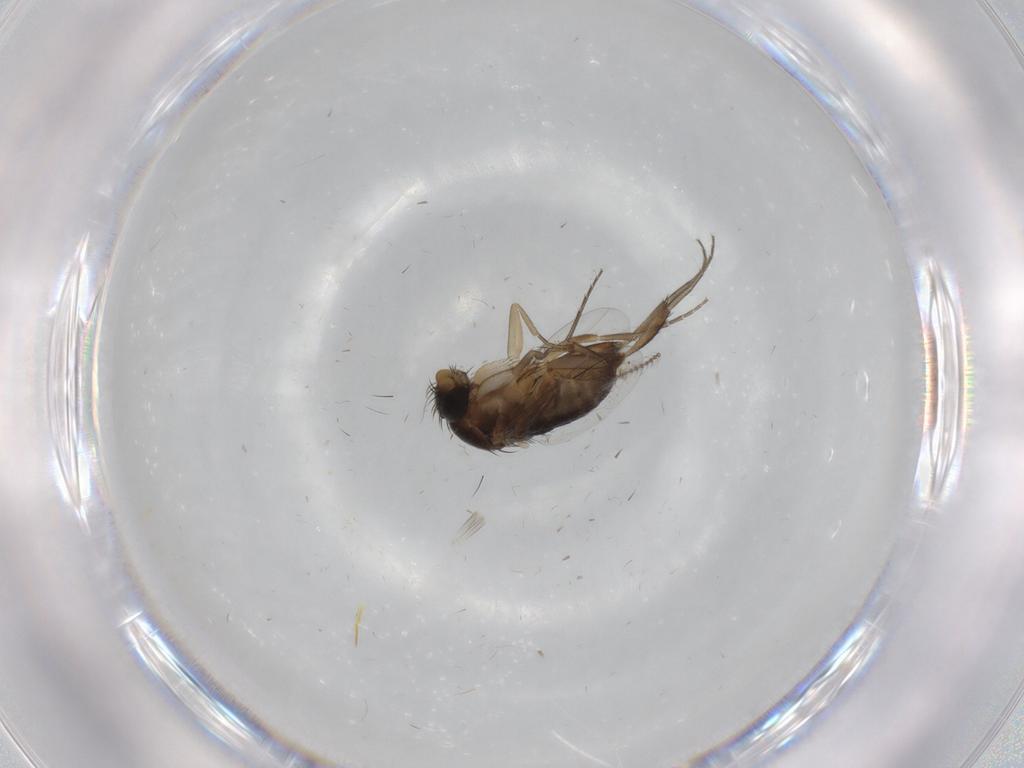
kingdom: Animalia
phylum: Arthropoda
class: Insecta
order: Diptera
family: Phoridae
